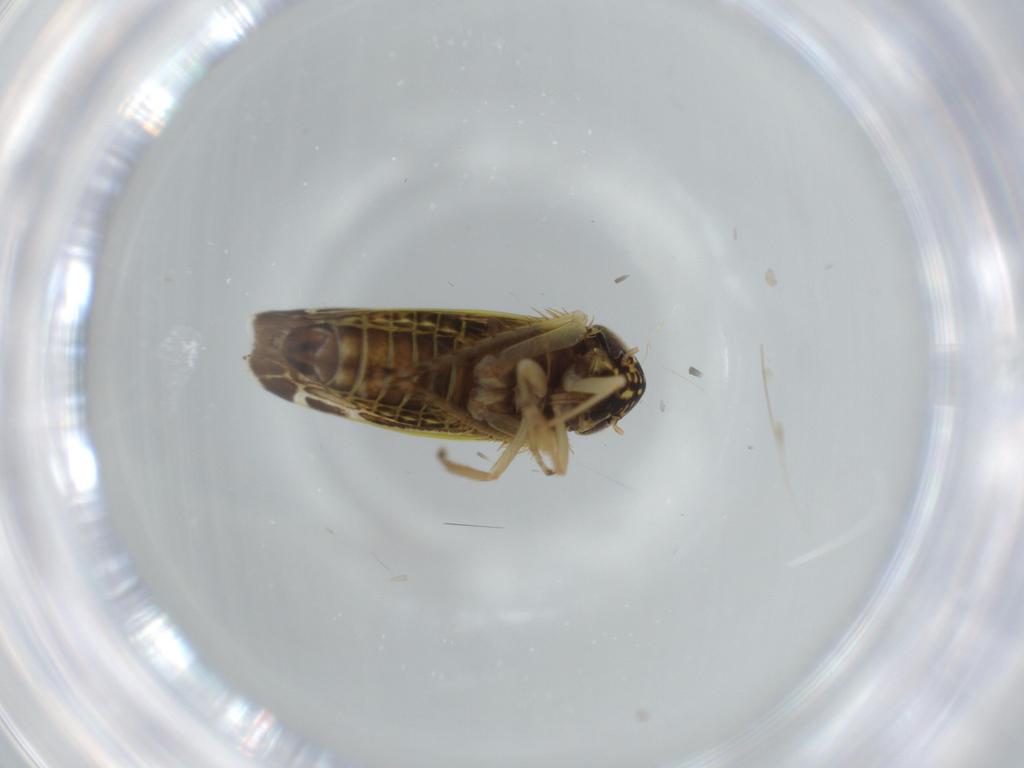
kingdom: Animalia
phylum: Arthropoda
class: Insecta
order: Hemiptera
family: Cicadellidae
